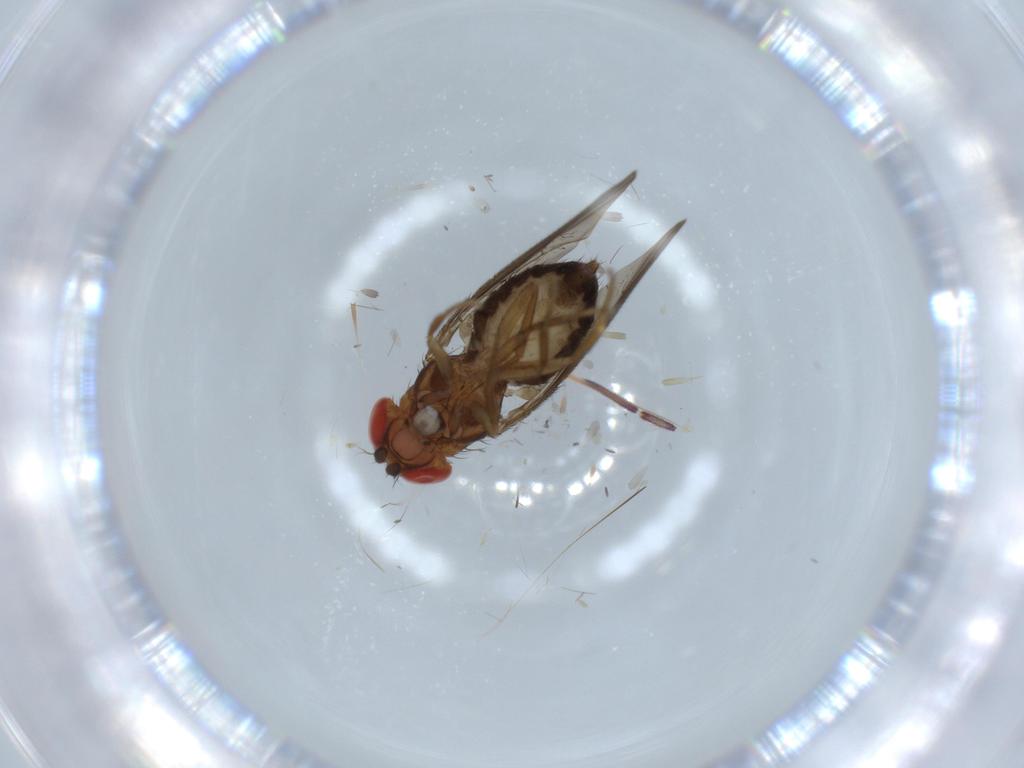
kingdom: Animalia
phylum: Arthropoda
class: Insecta
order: Diptera
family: Drosophilidae
